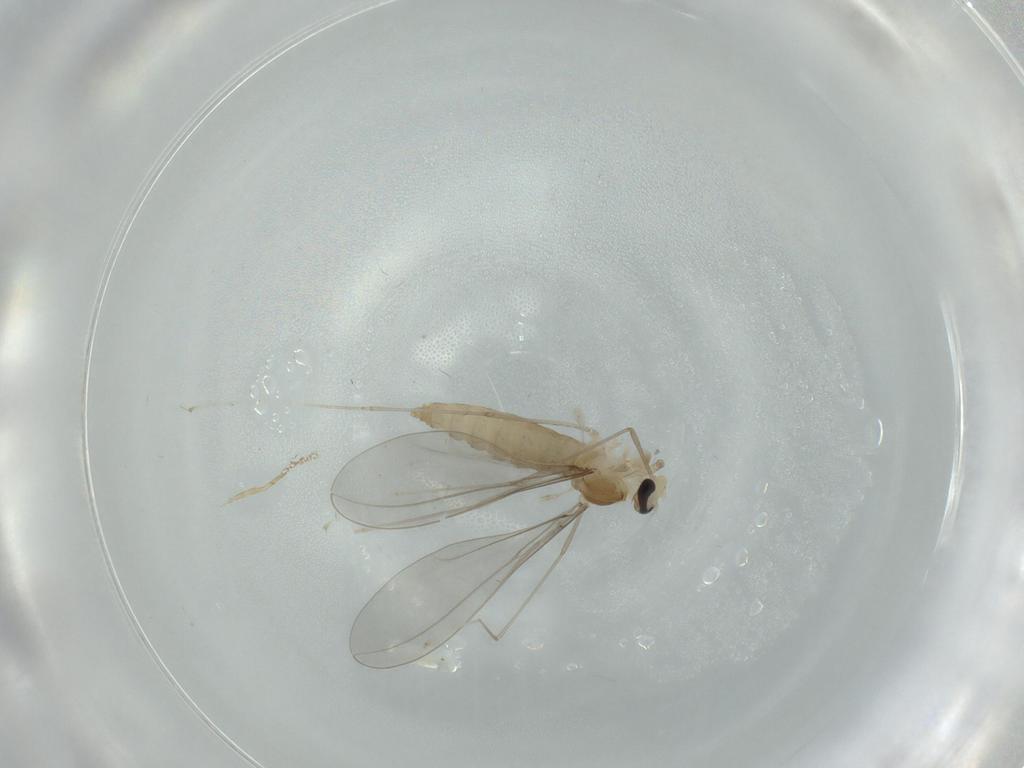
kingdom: Animalia
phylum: Arthropoda
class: Insecta
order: Diptera
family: Cecidomyiidae
